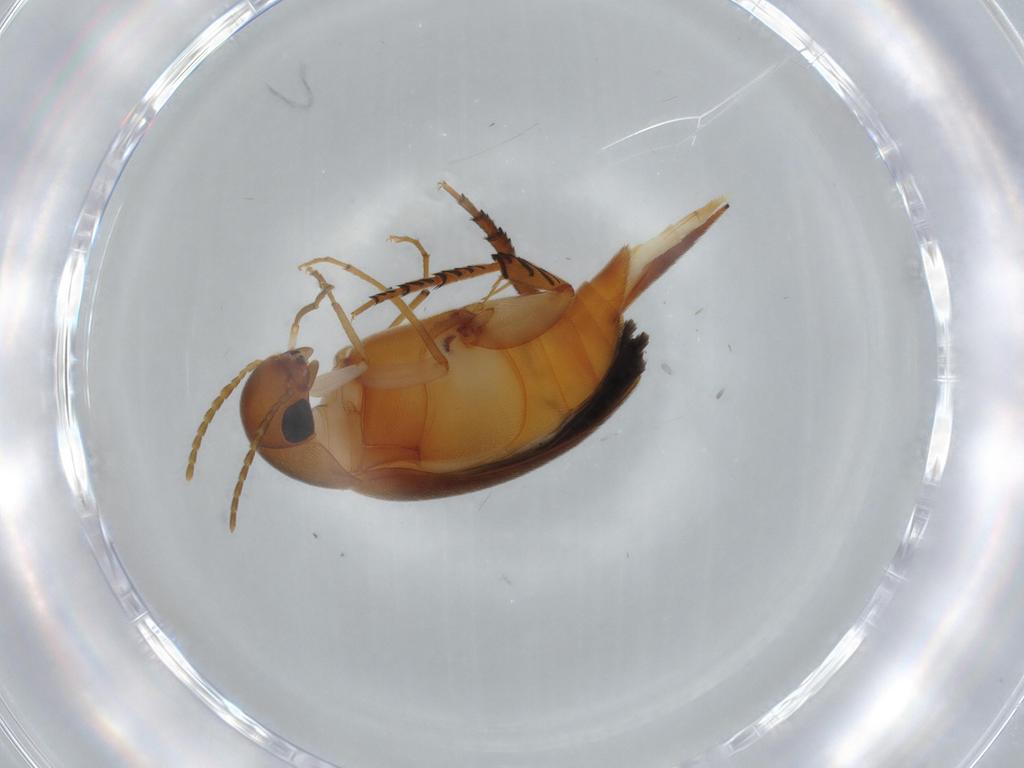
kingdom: Animalia
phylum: Arthropoda
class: Insecta
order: Coleoptera
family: Mordellidae
